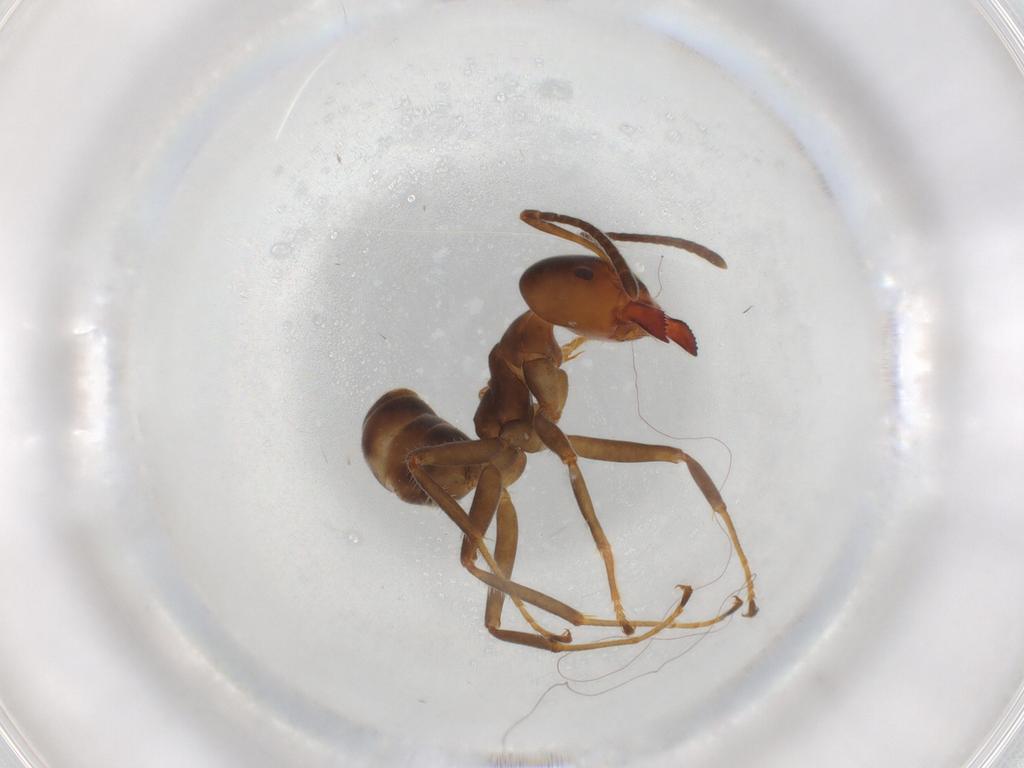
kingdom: Animalia
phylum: Arthropoda
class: Insecta
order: Hymenoptera
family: Formicidae
